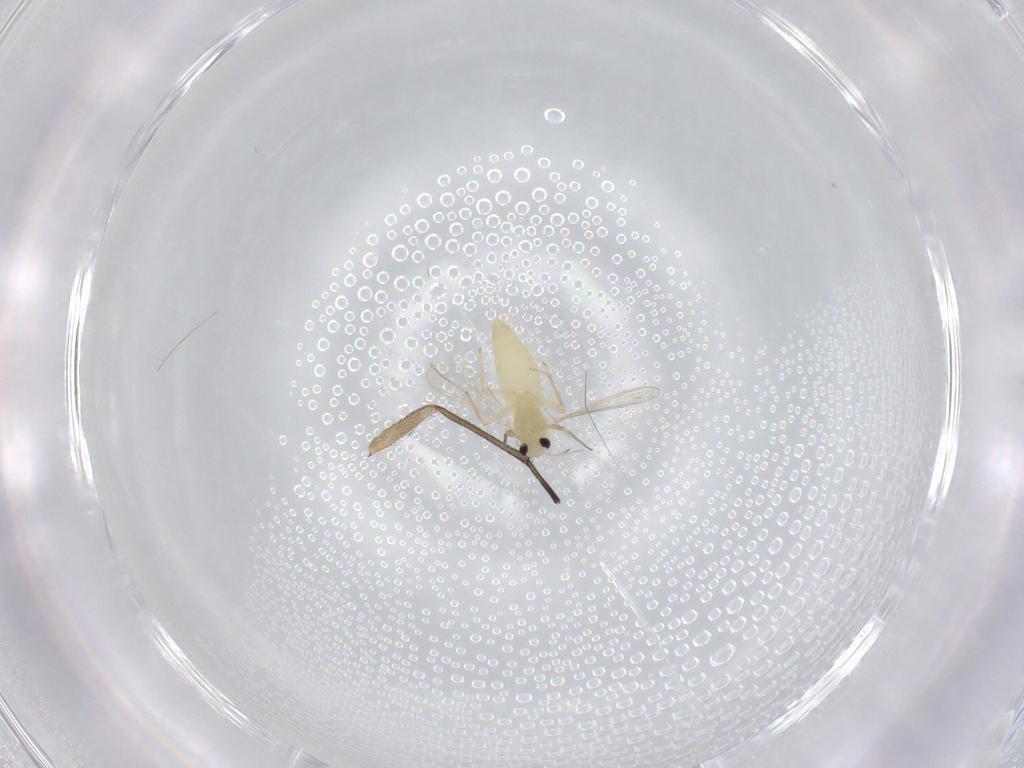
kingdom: Animalia
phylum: Arthropoda
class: Insecta
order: Diptera
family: Chironomidae
